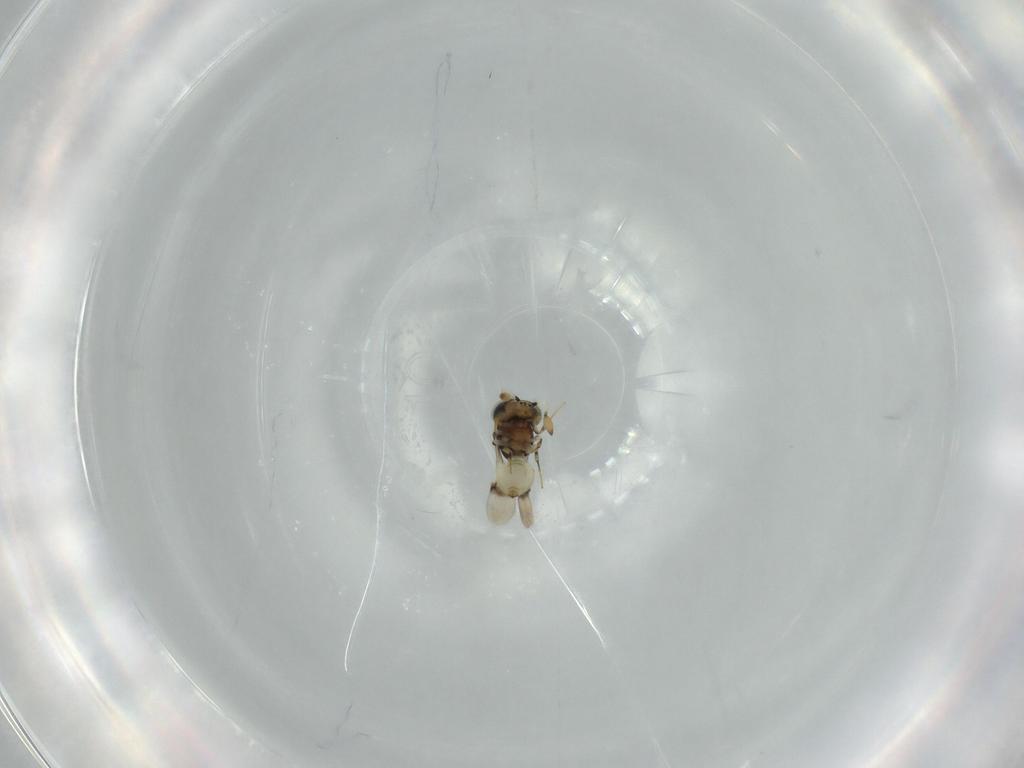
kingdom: Animalia
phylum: Arthropoda
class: Insecta
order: Hymenoptera
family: Scelionidae
